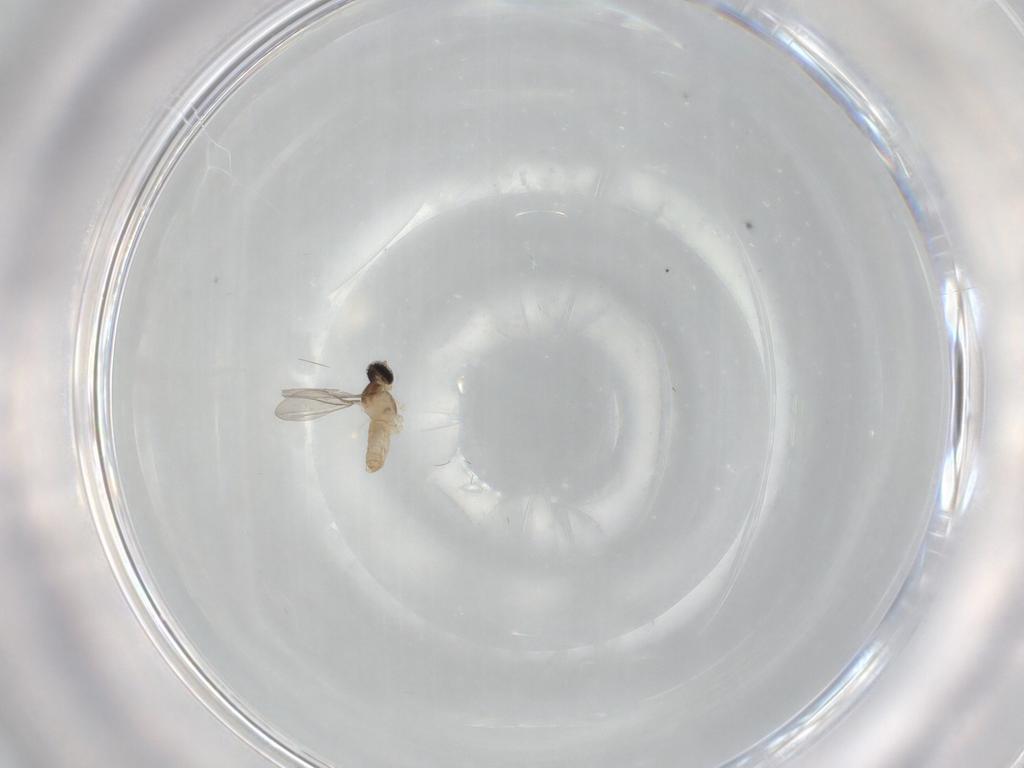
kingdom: Animalia
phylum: Arthropoda
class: Insecta
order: Diptera
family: Cecidomyiidae
